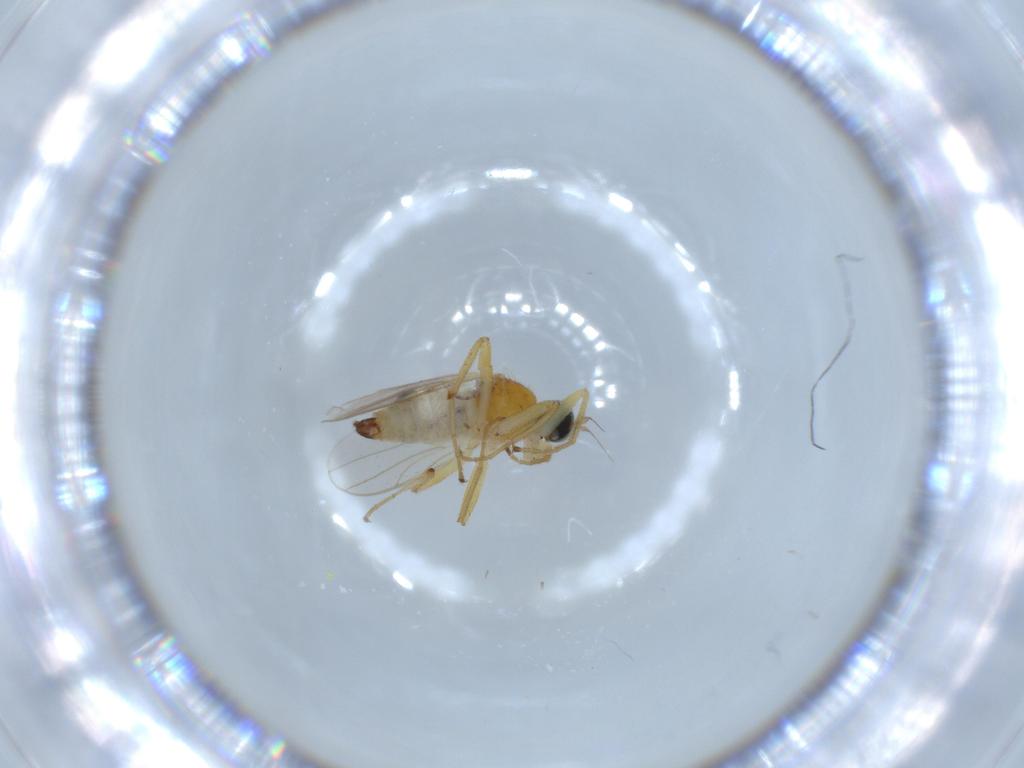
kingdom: Animalia
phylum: Arthropoda
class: Insecta
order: Diptera
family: Hybotidae
